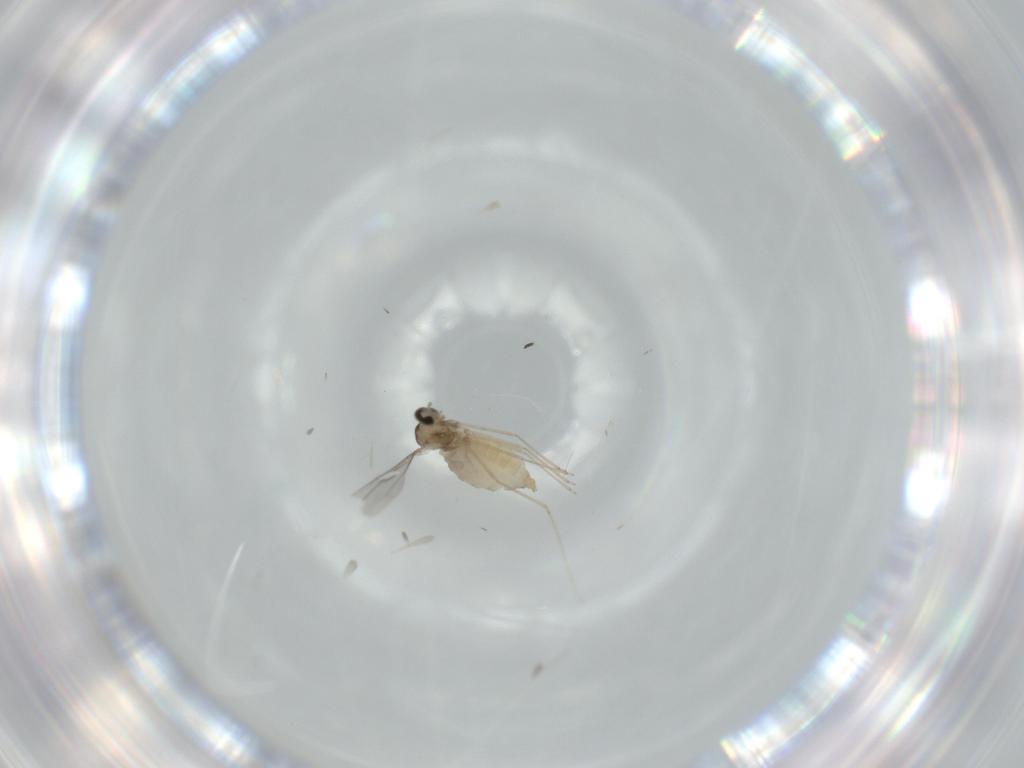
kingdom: Animalia
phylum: Arthropoda
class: Insecta
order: Diptera
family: Cecidomyiidae
